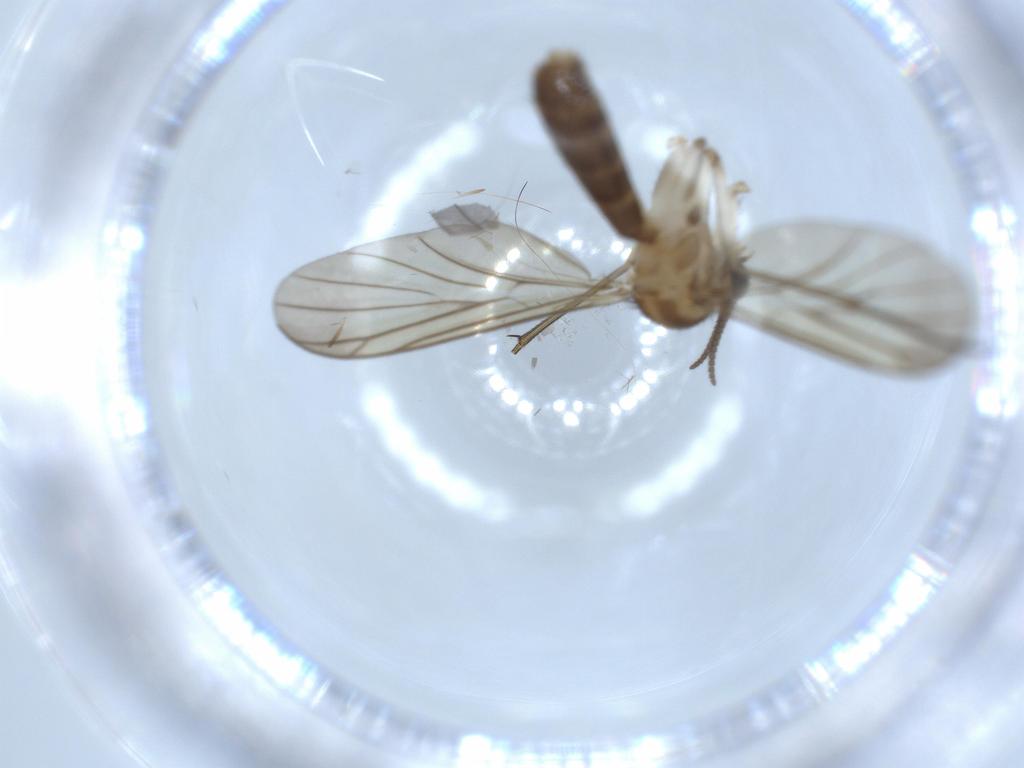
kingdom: Animalia
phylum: Arthropoda
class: Insecta
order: Diptera
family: Mycetophilidae
